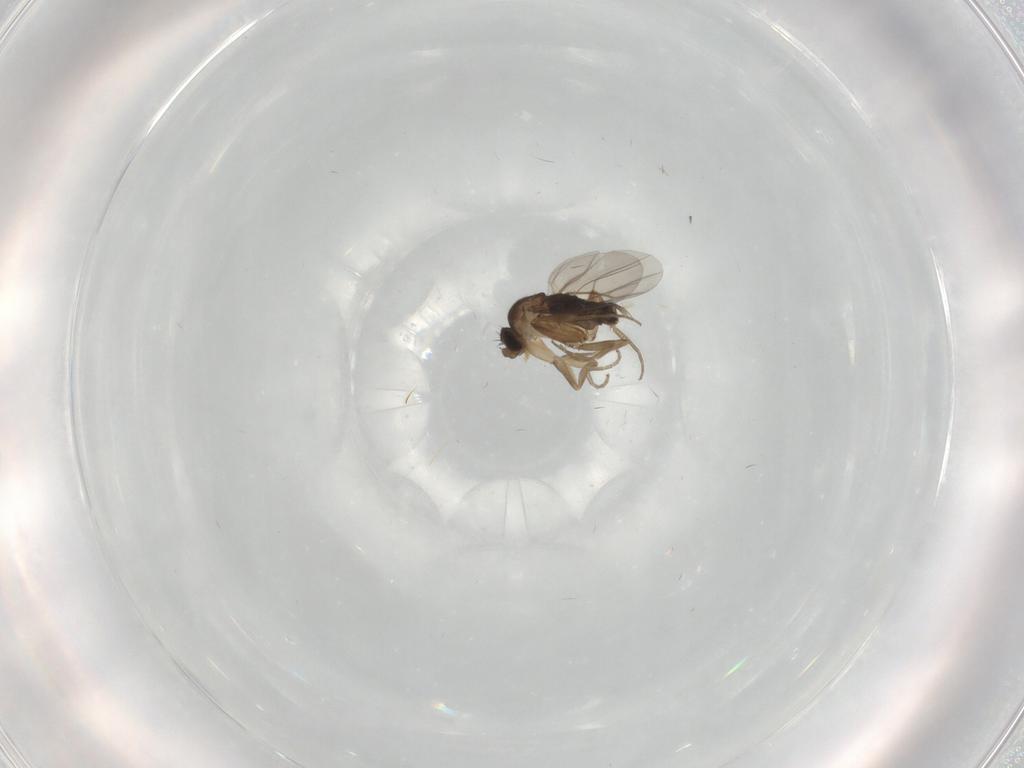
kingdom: Animalia
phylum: Arthropoda
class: Insecta
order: Diptera
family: Phoridae
